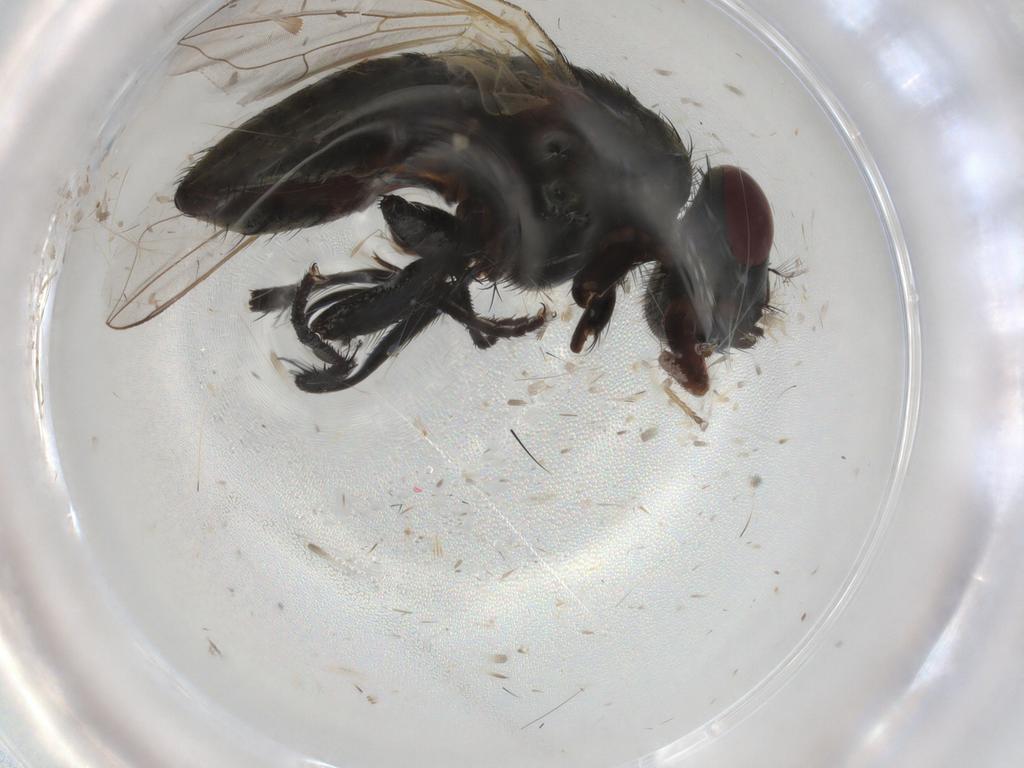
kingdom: Animalia
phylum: Arthropoda
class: Insecta
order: Diptera
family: Muscidae
